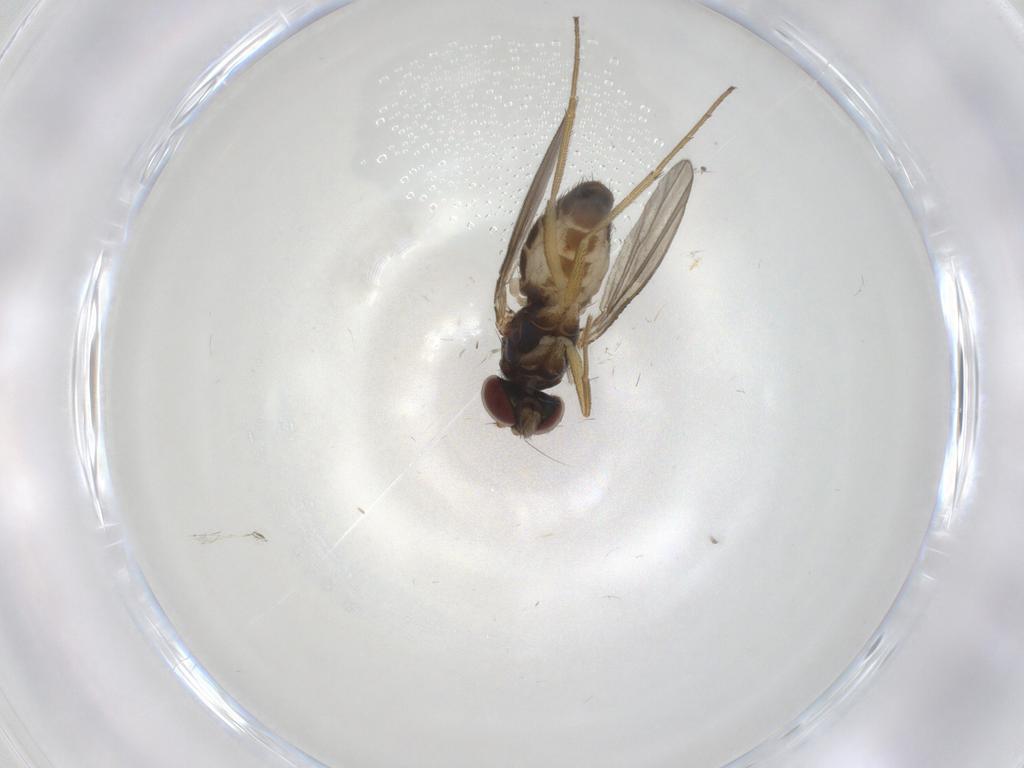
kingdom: Animalia
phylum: Arthropoda
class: Insecta
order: Diptera
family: Dolichopodidae
